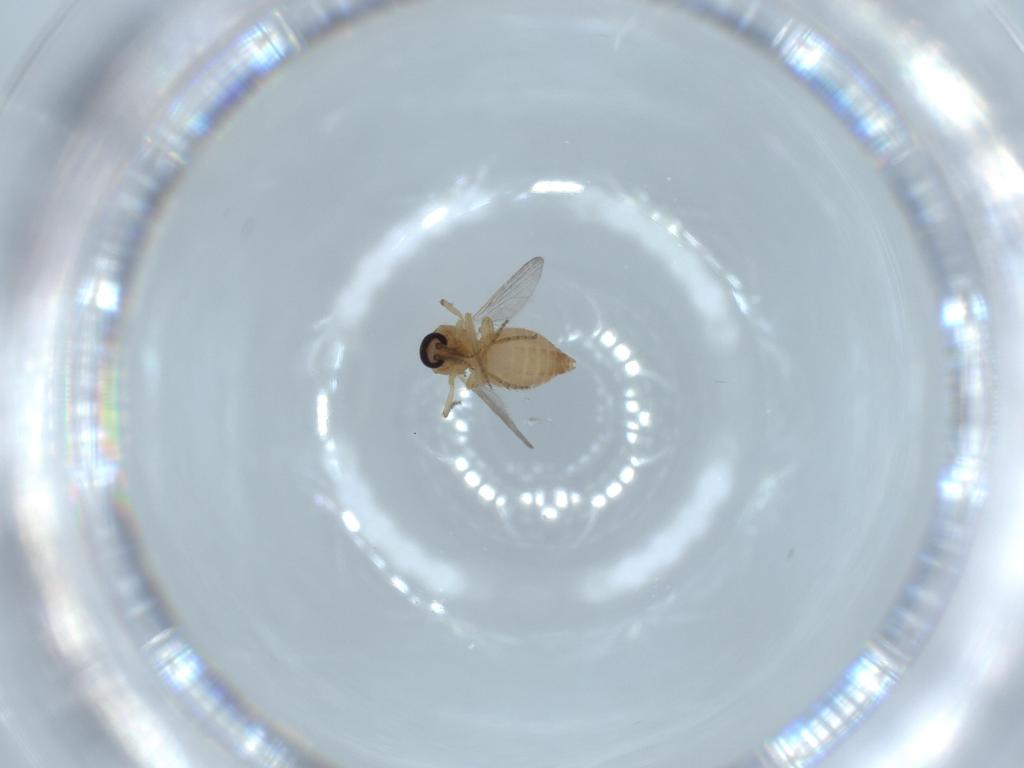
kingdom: Animalia
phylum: Arthropoda
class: Insecta
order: Diptera
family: Ceratopogonidae
